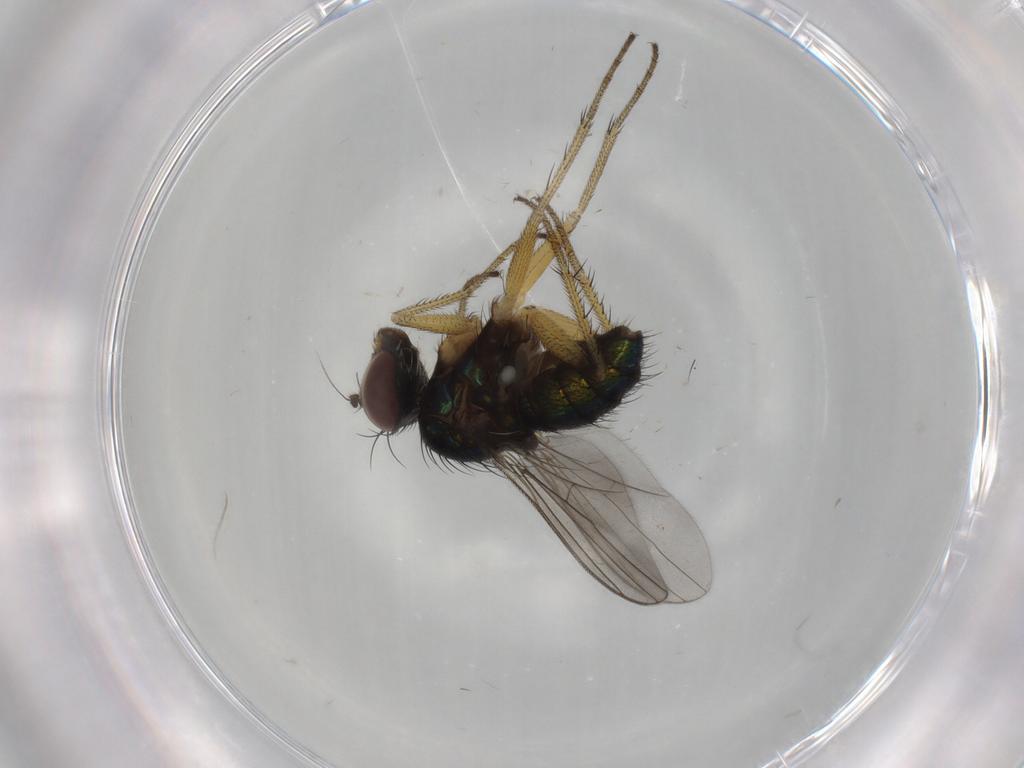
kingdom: Animalia
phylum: Arthropoda
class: Insecta
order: Diptera
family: Dolichopodidae
